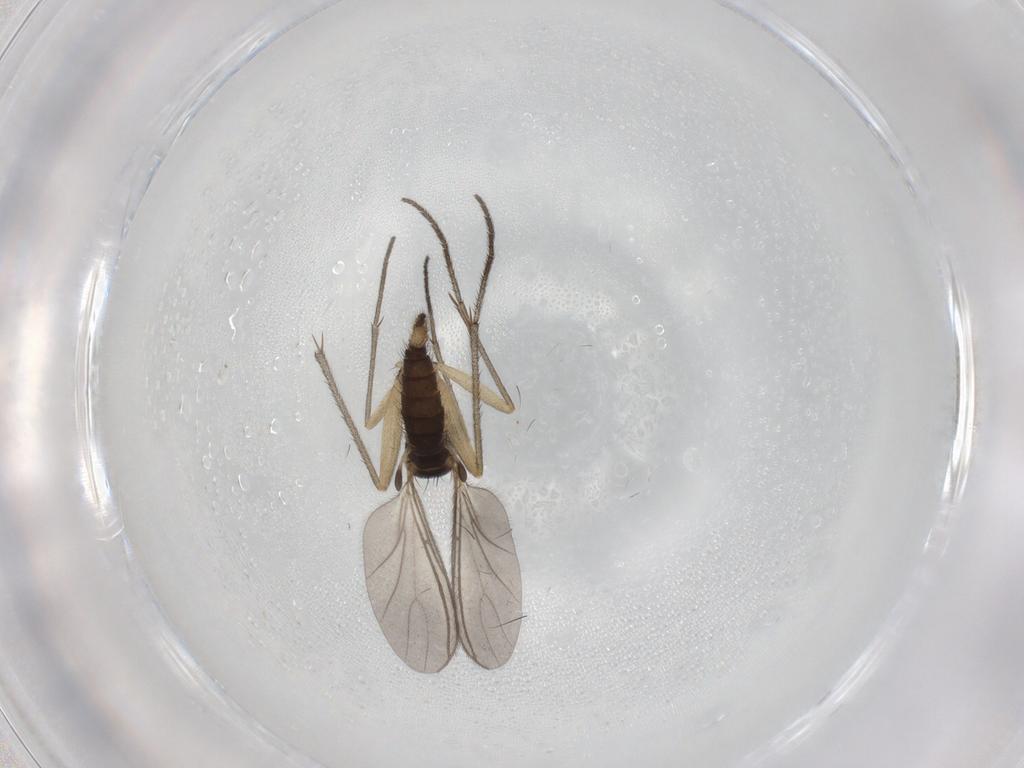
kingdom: Animalia
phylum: Arthropoda
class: Insecta
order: Diptera
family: Sciaridae
